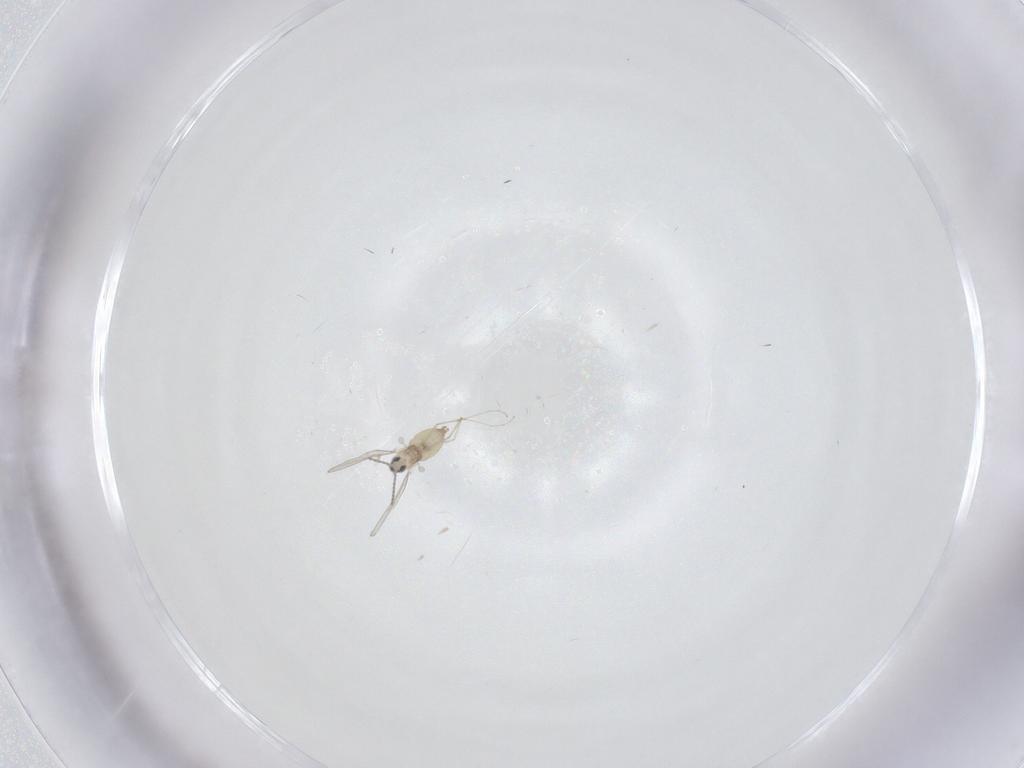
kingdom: Animalia
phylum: Arthropoda
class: Insecta
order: Diptera
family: Cecidomyiidae
